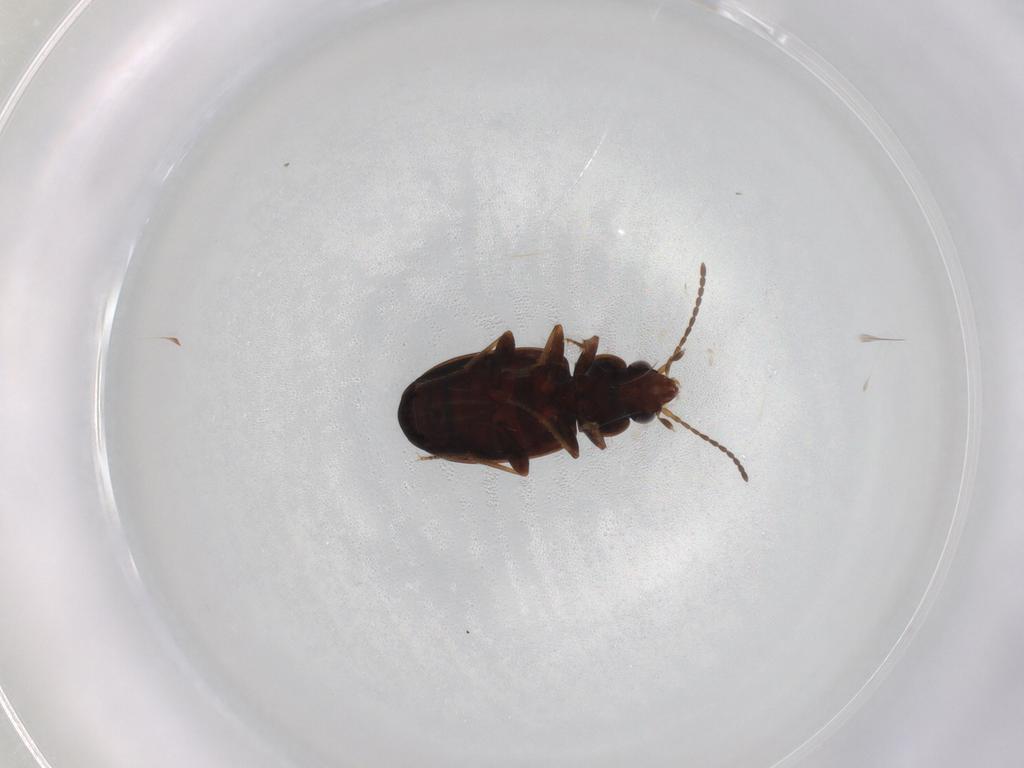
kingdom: Animalia
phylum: Arthropoda
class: Insecta
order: Coleoptera
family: Carabidae
